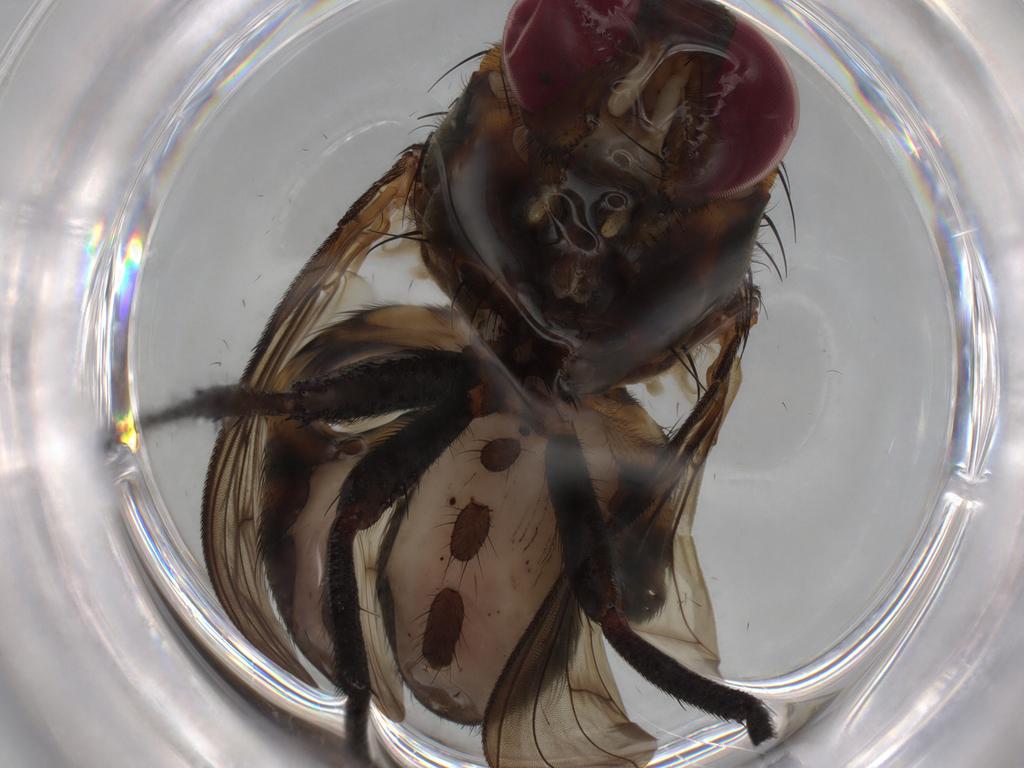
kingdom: Animalia
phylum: Arthropoda
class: Insecta
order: Diptera
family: Muscidae
